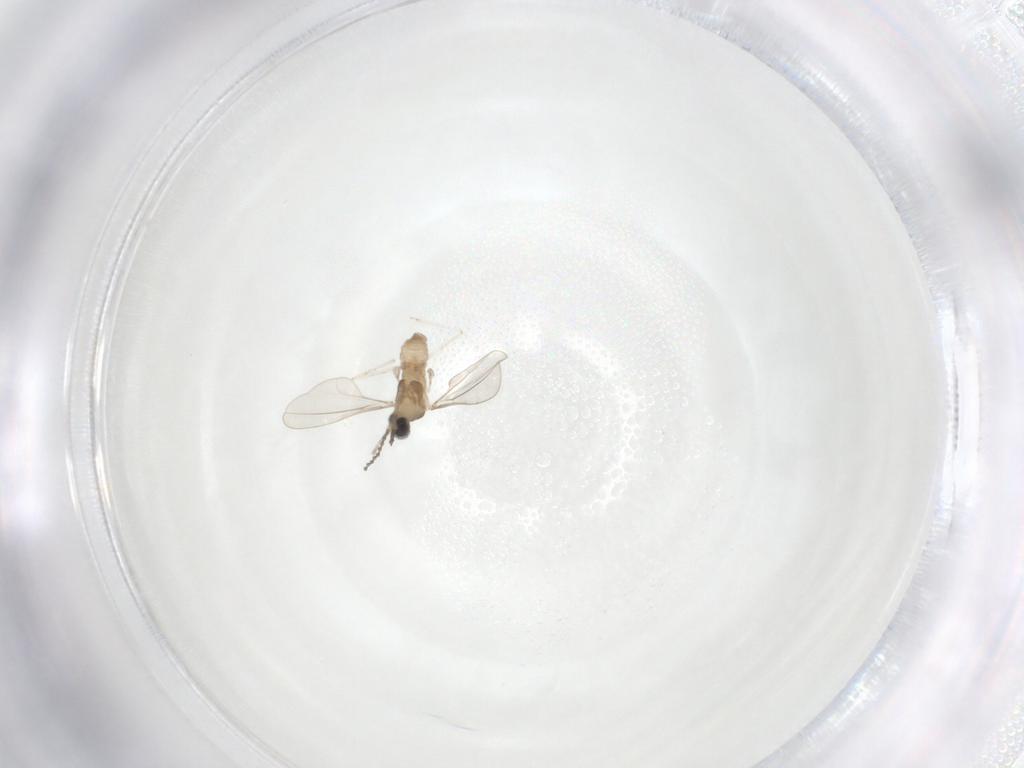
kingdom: Animalia
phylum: Arthropoda
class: Insecta
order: Diptera
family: Cecidomyiidae
